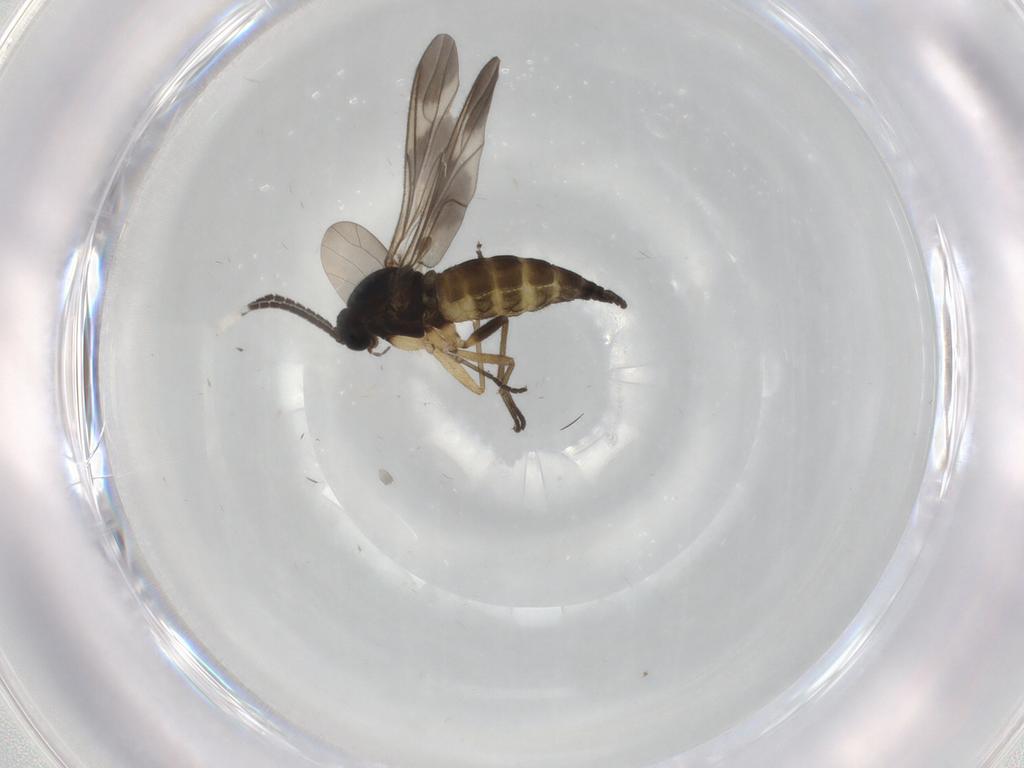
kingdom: Animalia
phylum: Arthropoda
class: Insecta
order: Diptera
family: Sciaridae
